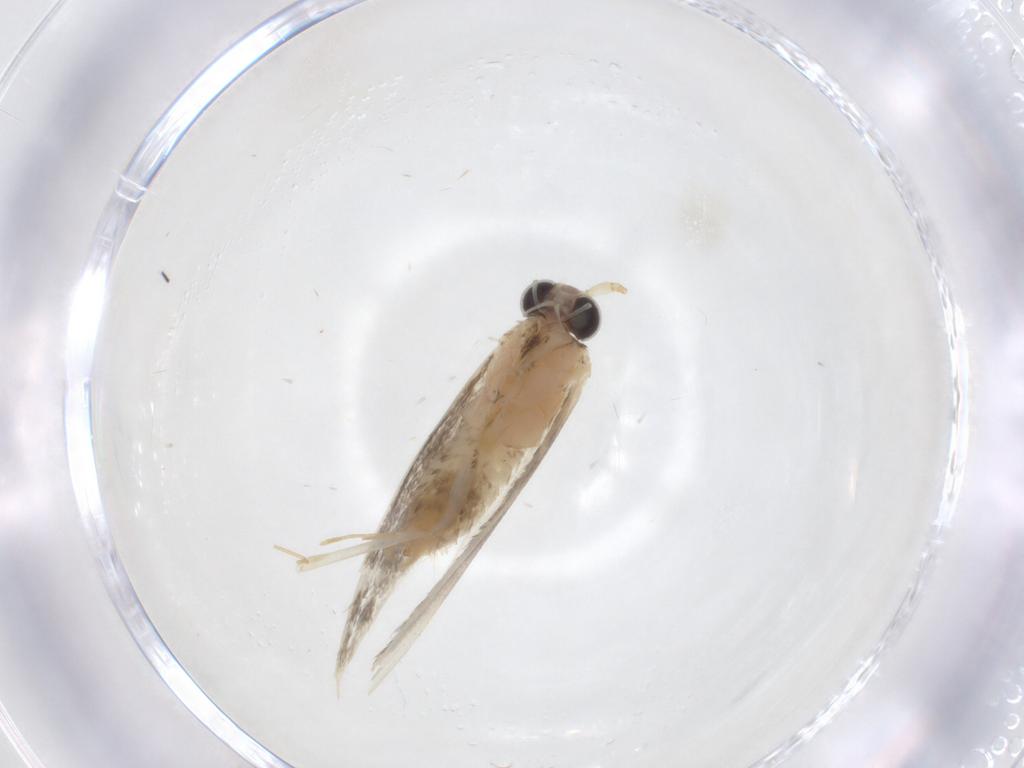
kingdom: Animalia
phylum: Arthropoda
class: Insecta
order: Lepidoptera
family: Tineidae
